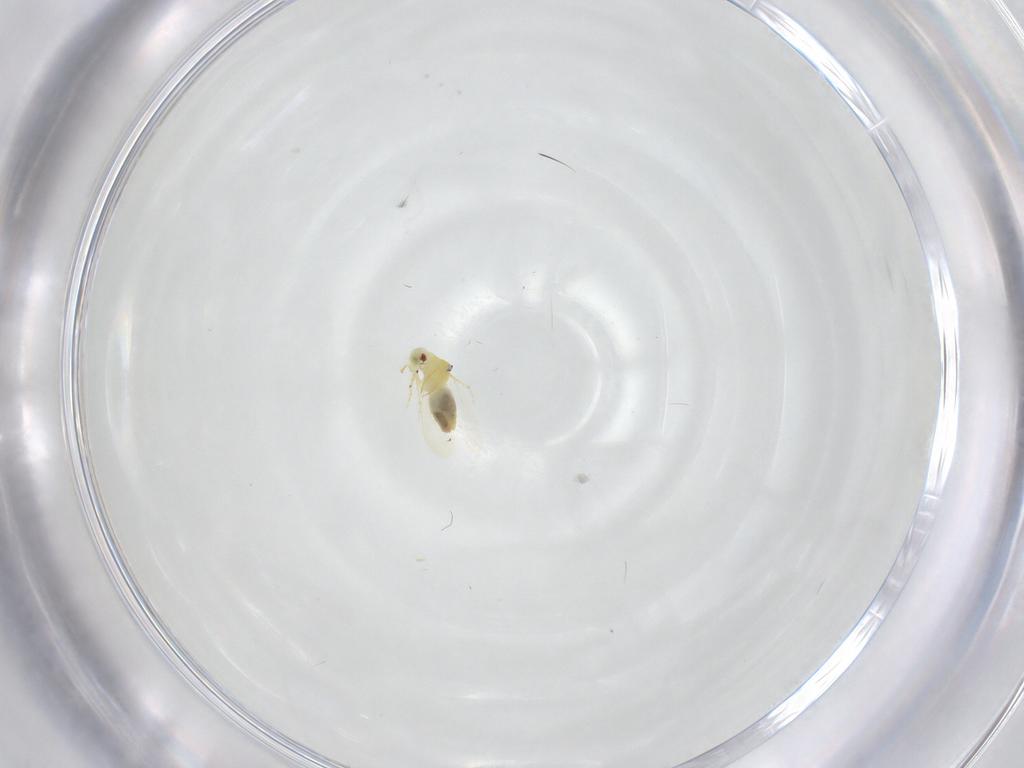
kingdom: Animalia
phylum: Arthropoda
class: Insecta
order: Hemiptera
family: Aleyrodidae
